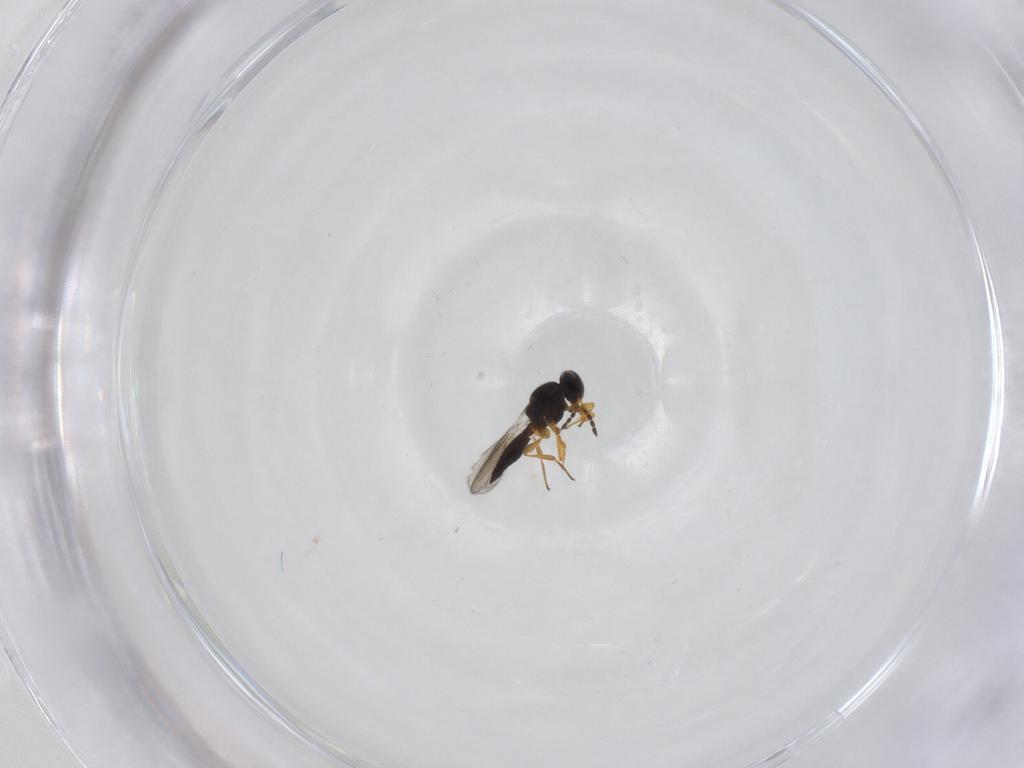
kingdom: Animalia
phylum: Arthropoda
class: Insecta
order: Hymenoptera
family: Platygastridae
